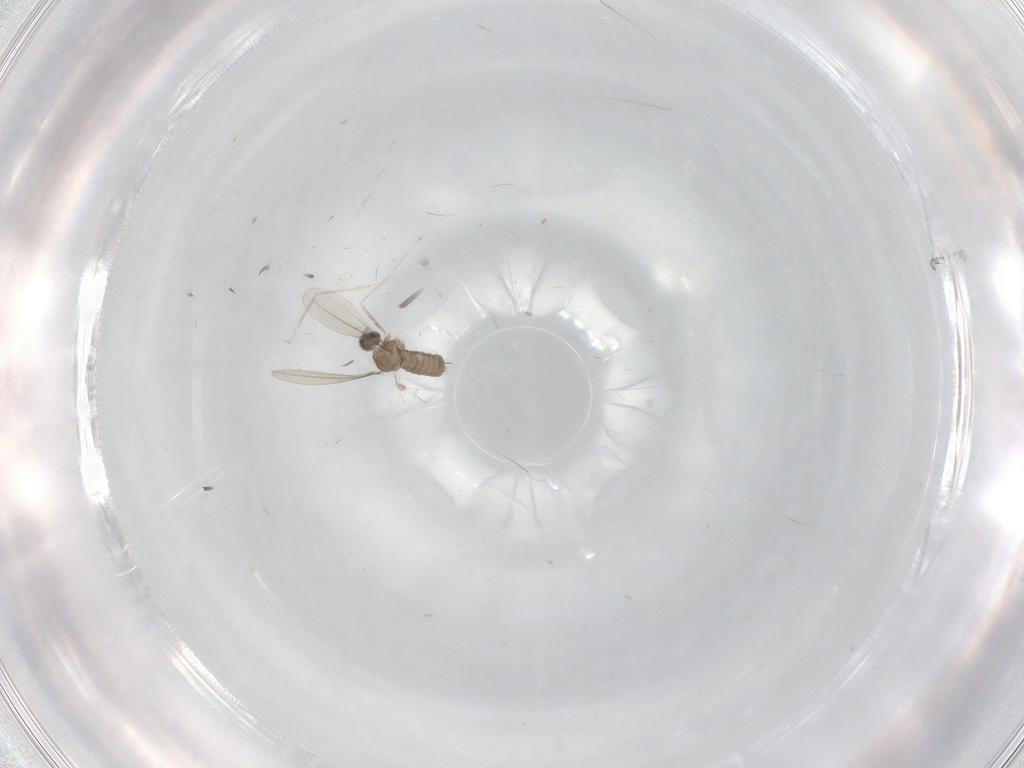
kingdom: Animalia
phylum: Arthropoda
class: Insecta
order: Diptera
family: Cecidomyiidae
